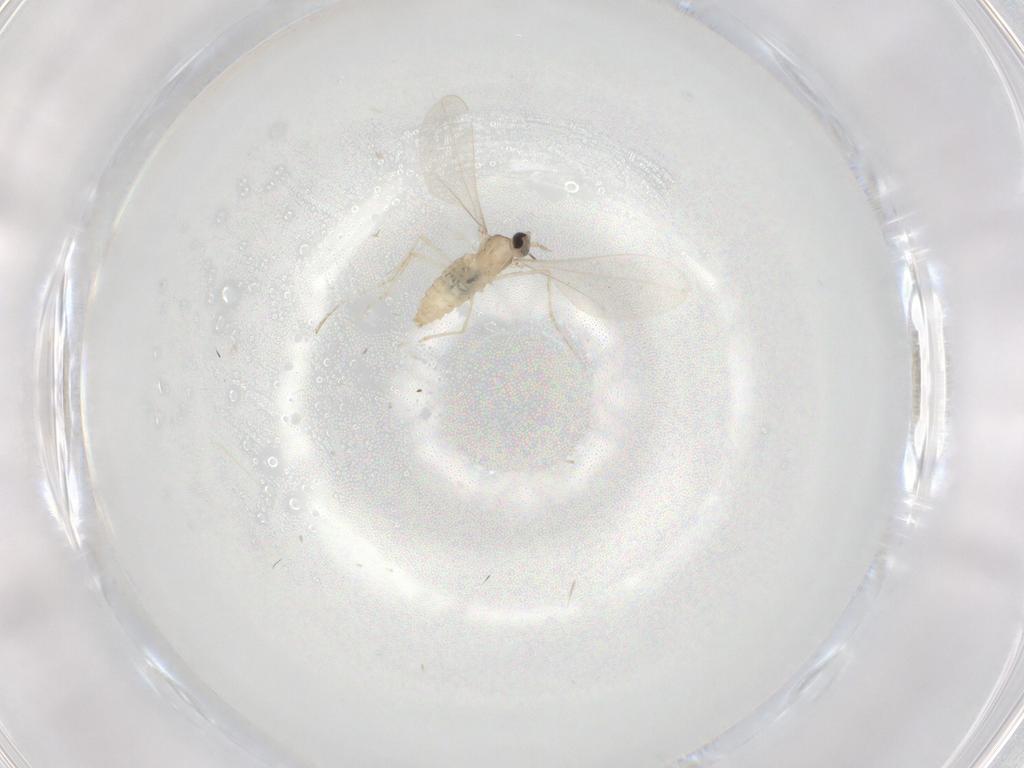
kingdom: Animalia
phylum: Arthropoda
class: Insecta
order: Diptera
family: Cecidomyiidae
